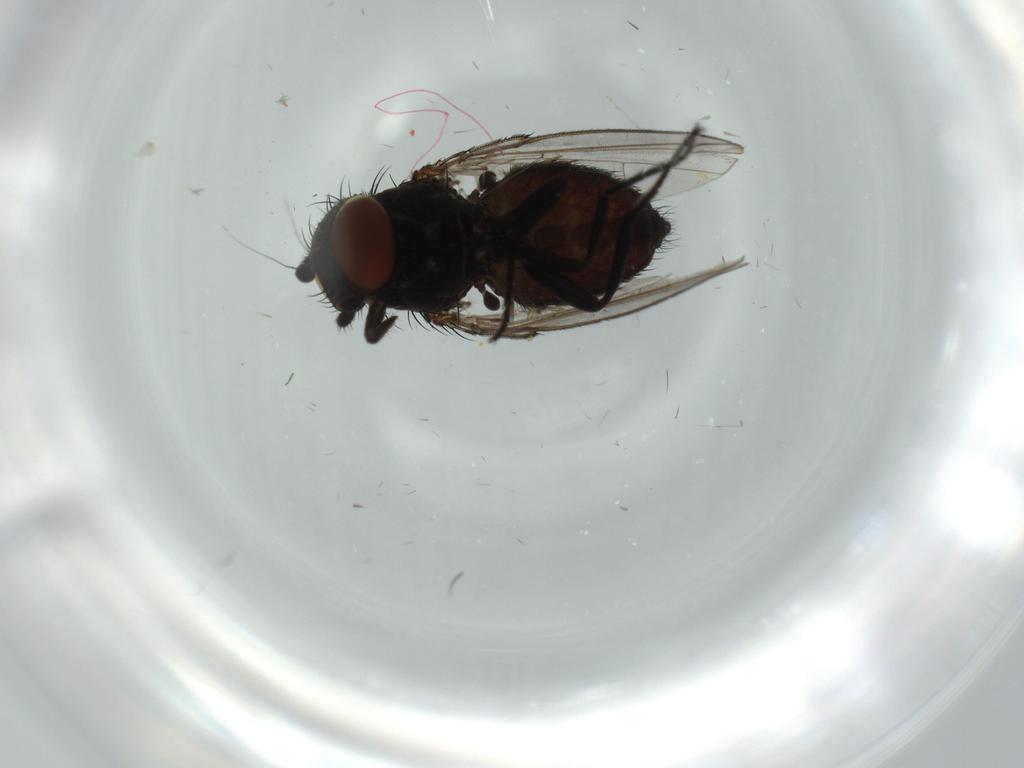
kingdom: Animalia
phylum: Arthropoda
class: Insecta
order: Diptera
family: Milichiidae
